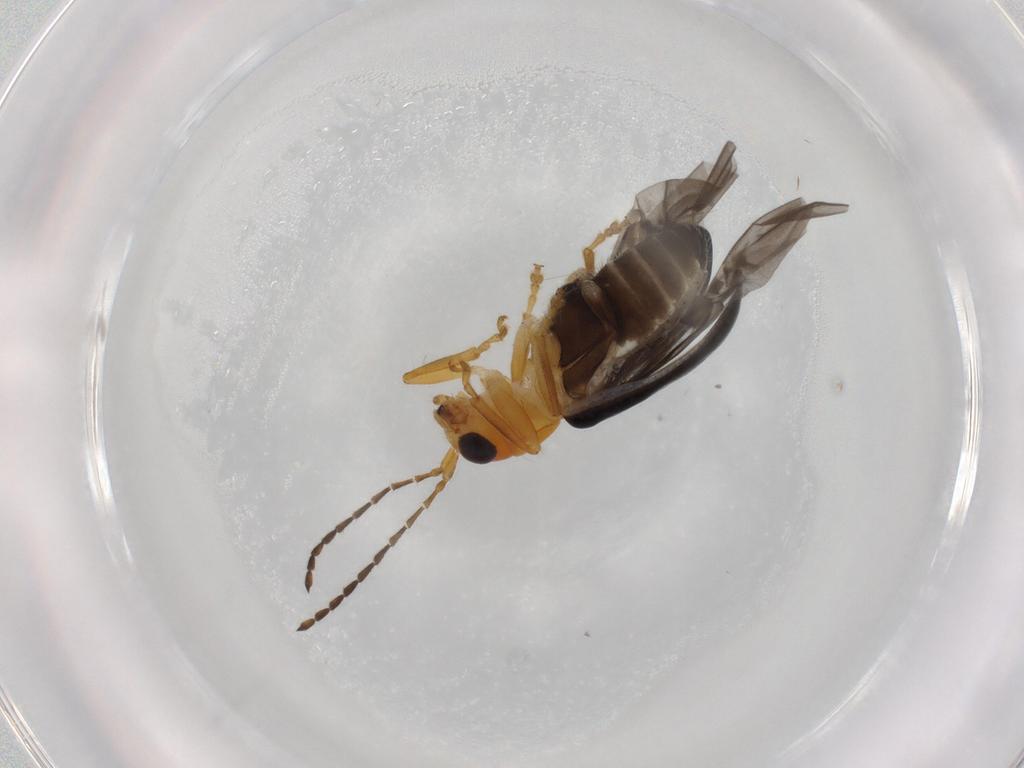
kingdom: Animalia
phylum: Arthropoda
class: Insecta
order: Coleoptera
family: Chrysomelidae
